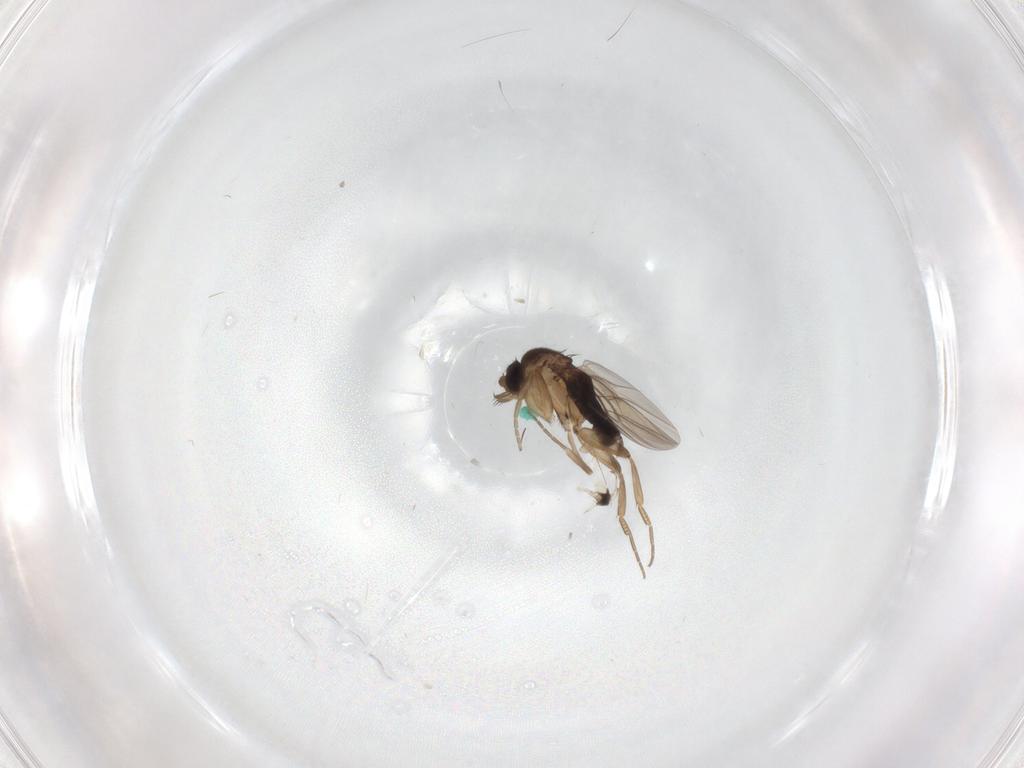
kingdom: Animalia
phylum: Arthropoda
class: Insecta
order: Diptera
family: Phoridae
